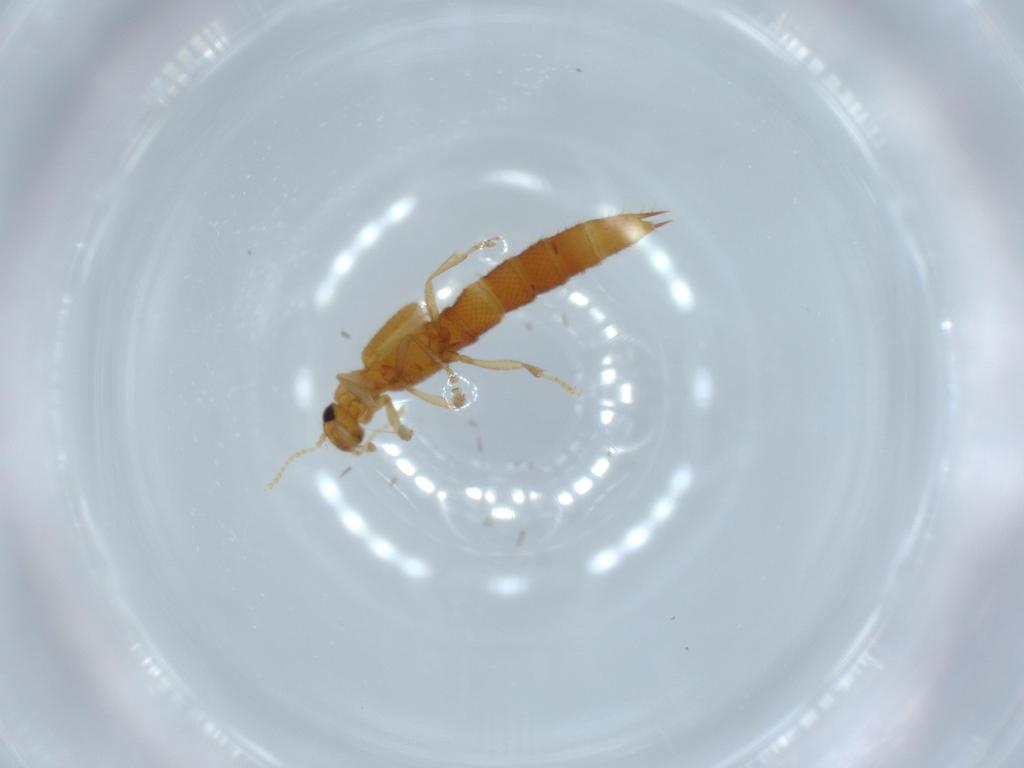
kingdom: Animalia
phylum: Arthropoda
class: Insecta
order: Coleoptera
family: Staphylinidae
